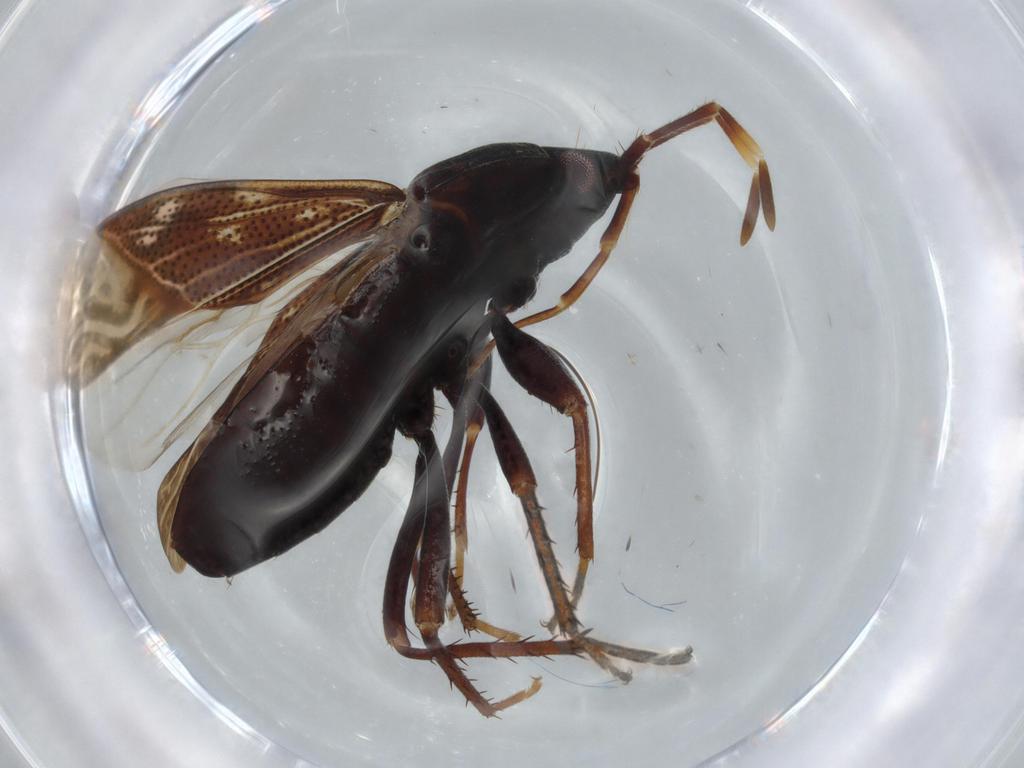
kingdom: Animalia
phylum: Arthropoda
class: Insecta
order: Hemiptera
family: Rhyparochromidae
